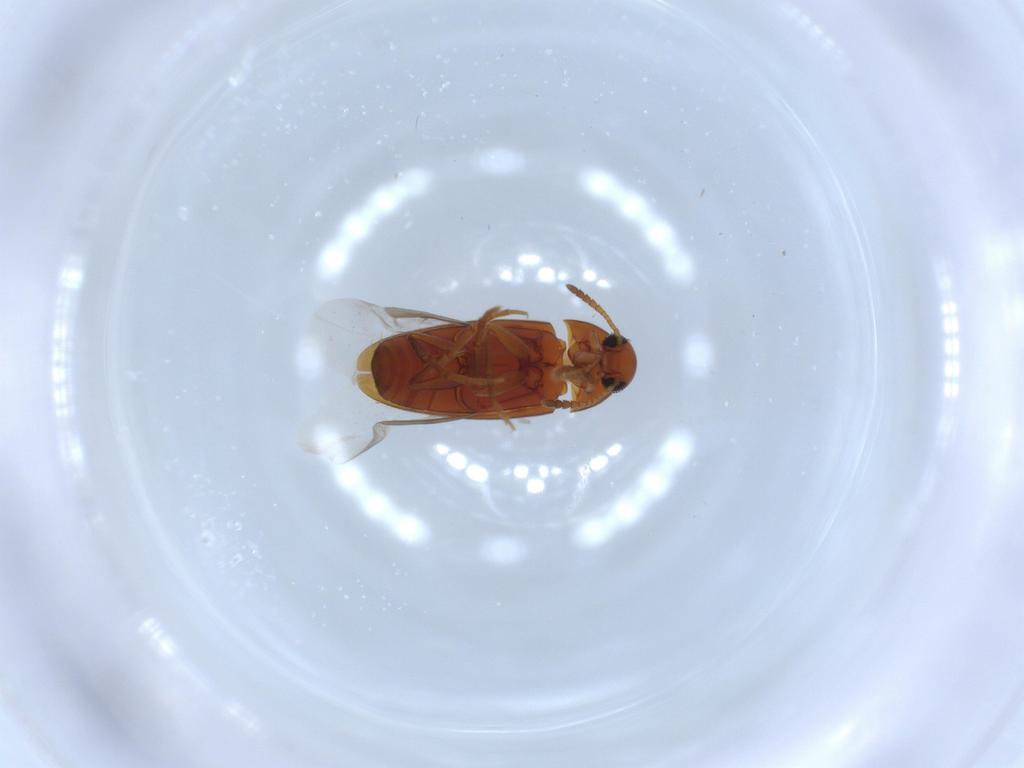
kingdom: Animalia
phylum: Arthropoda
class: Insecta
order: Coleoptera
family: Scraptiidae
